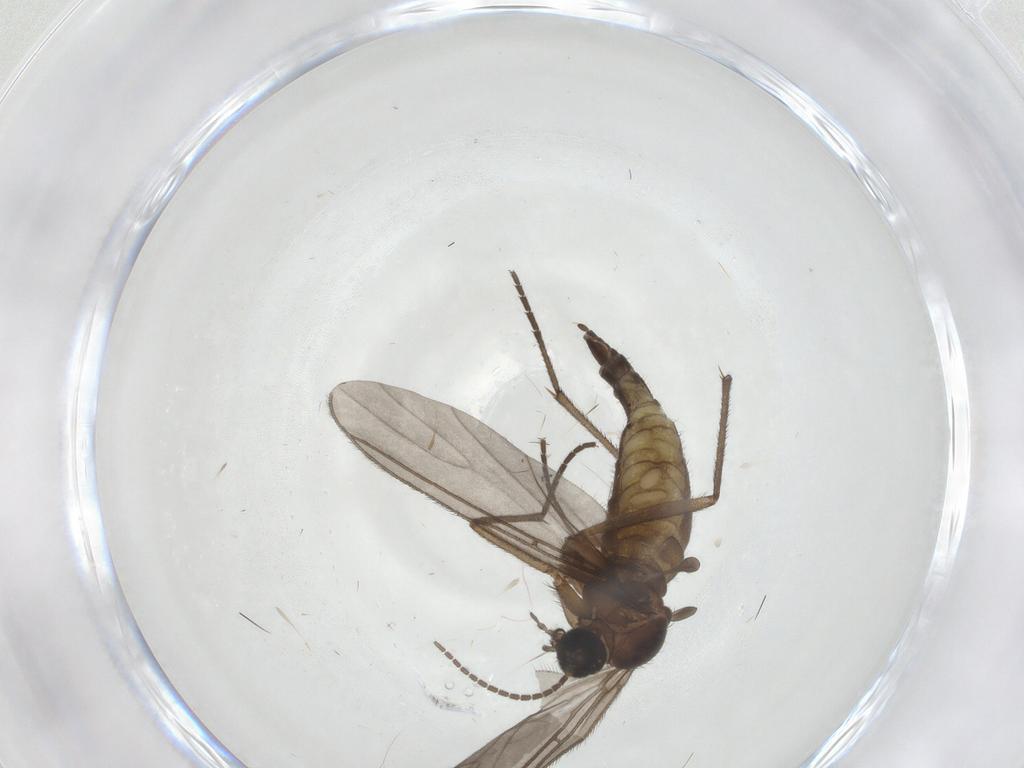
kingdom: Animalia
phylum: Arthropoda
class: Insecta
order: Diptera
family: Sciaridae
